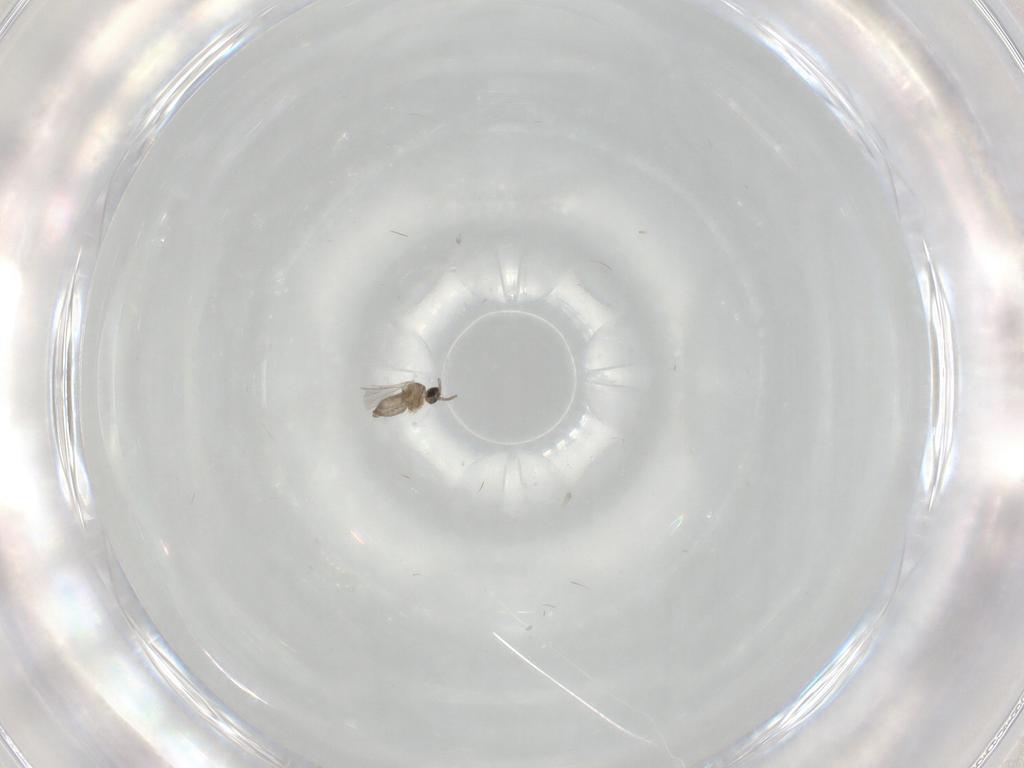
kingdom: Animalia
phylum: Arthropoda
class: Insecta
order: Diptera
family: Cecidomyiidae
